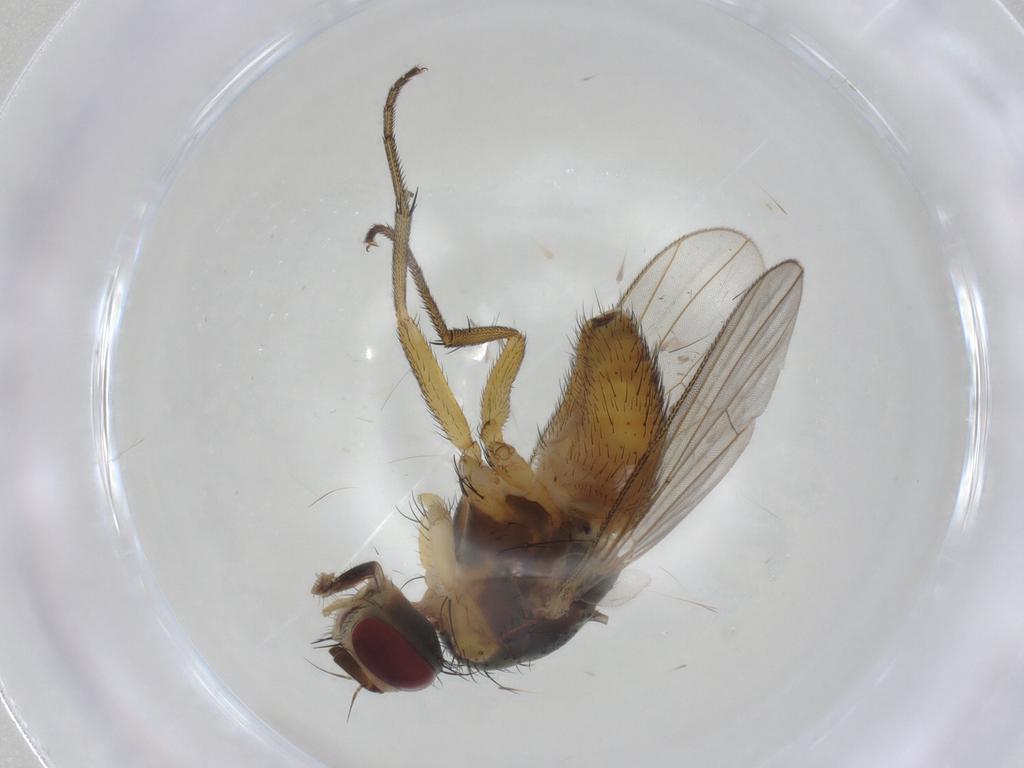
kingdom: Animalia
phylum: Arthropoda
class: Insecta
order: Diptera
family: Muscidae
